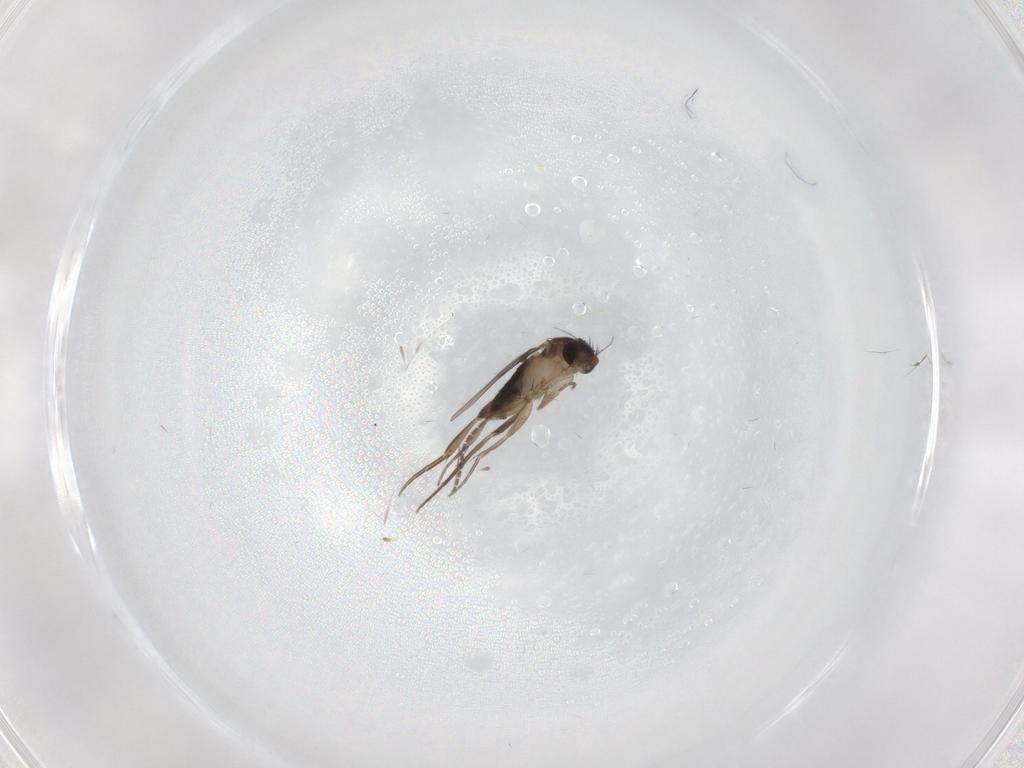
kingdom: Animalia
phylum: Arthropoda
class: Insecta
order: Diptera
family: Phoridae
